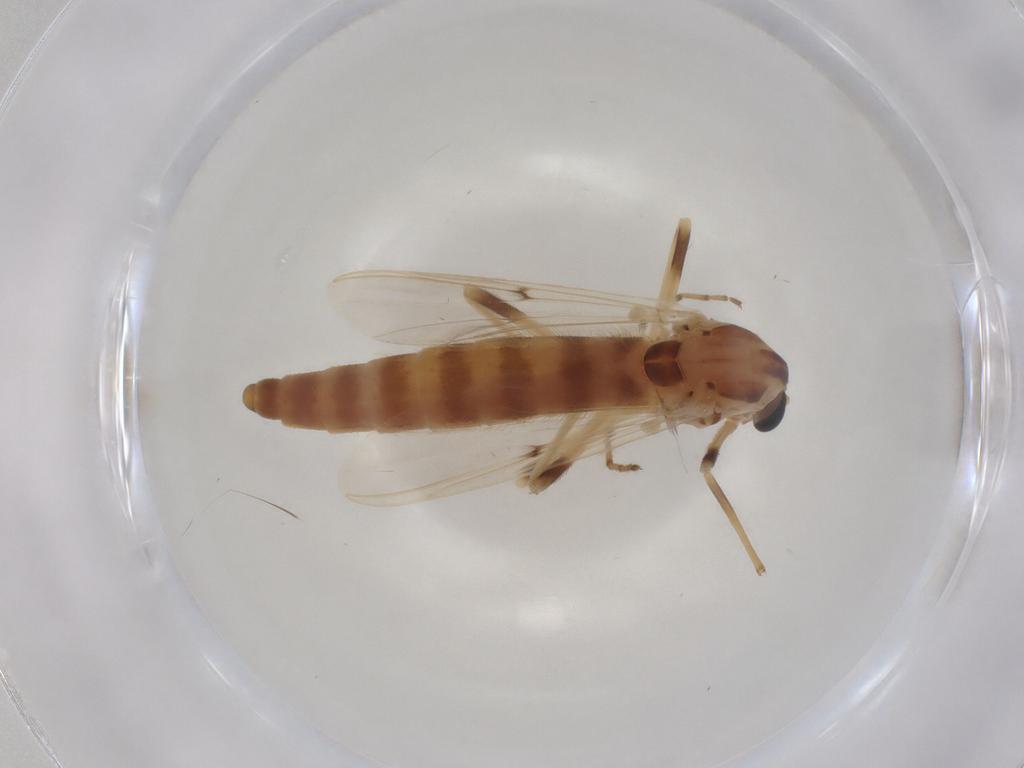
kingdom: Animalia
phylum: Arthropoda
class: Insecta
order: Diptera
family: Chironomidae
